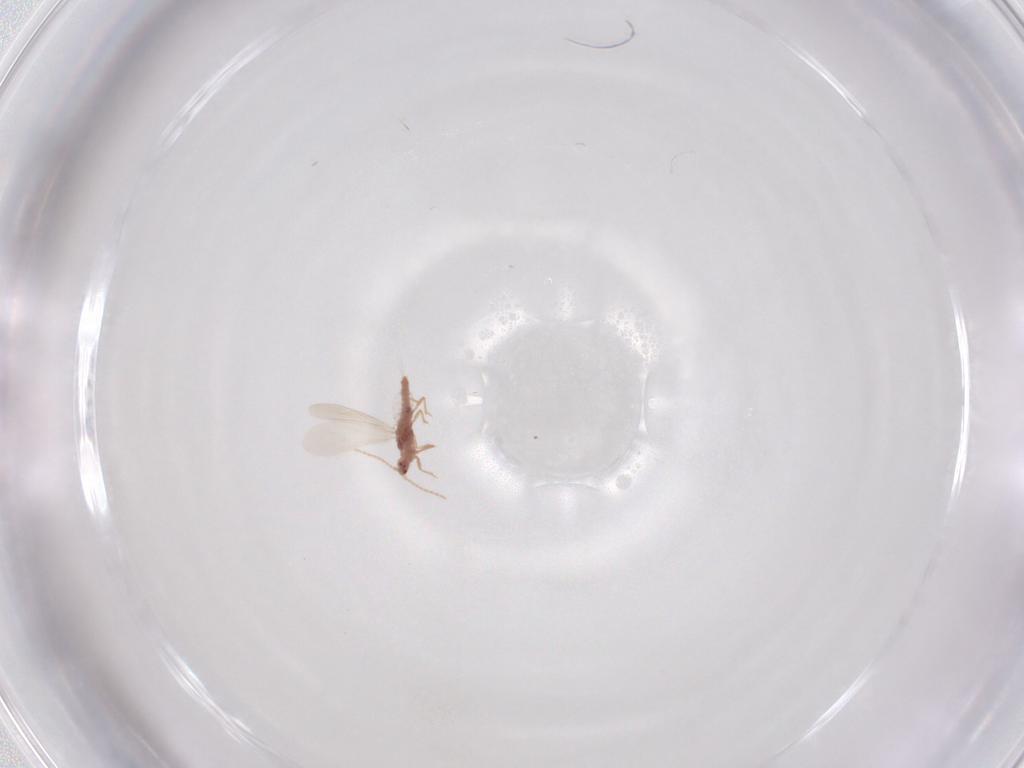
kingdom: Animalia
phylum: Arthropoda
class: Insecta
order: Hemiptera
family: Pseudococcidae
